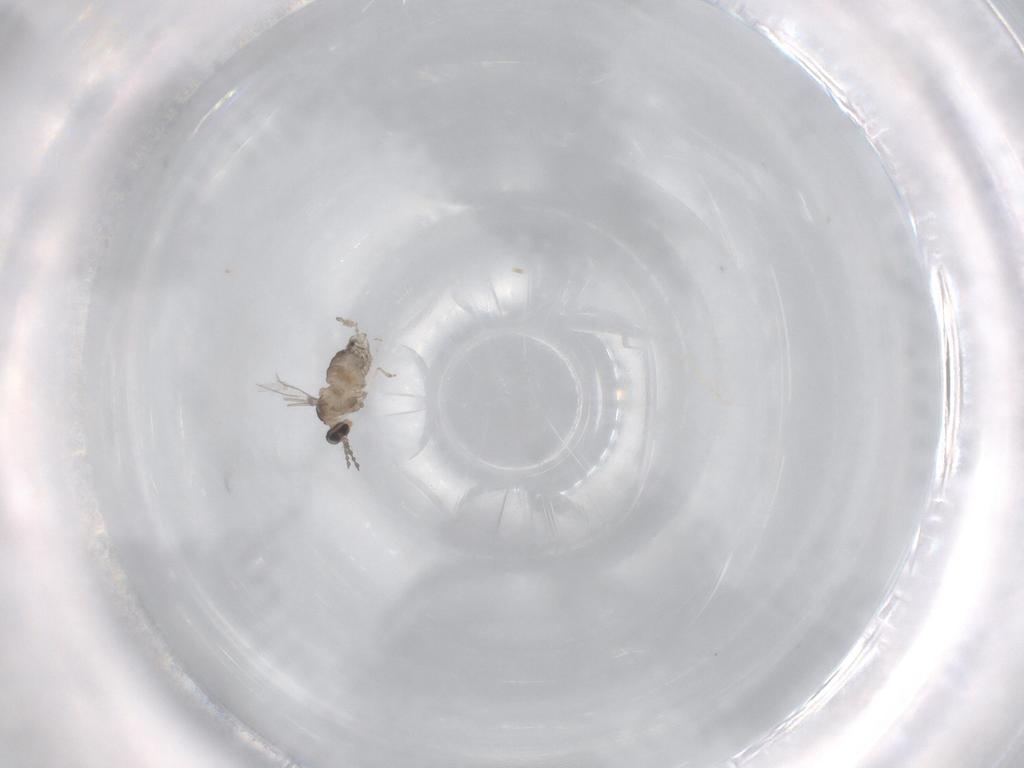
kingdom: Animalia
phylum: Arthropoda
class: Insecta
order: Diptera
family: Cecidomyiidae
